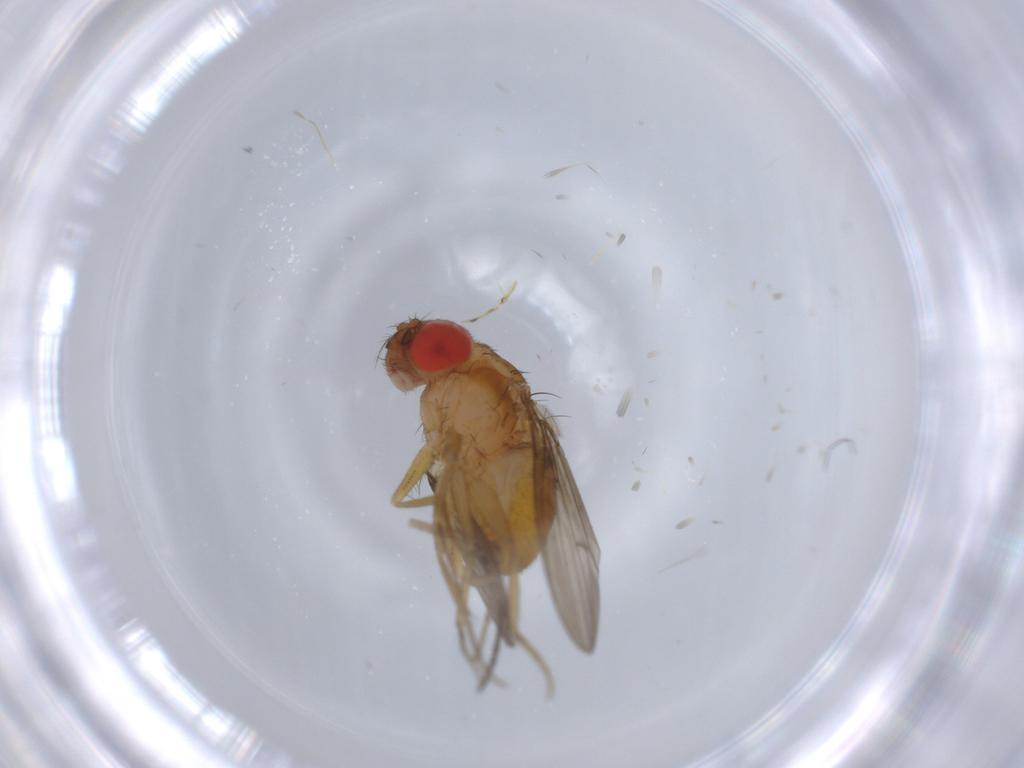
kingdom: Animalia
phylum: Arthropoda
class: Insecta
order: Diptera
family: Drosophilidae
